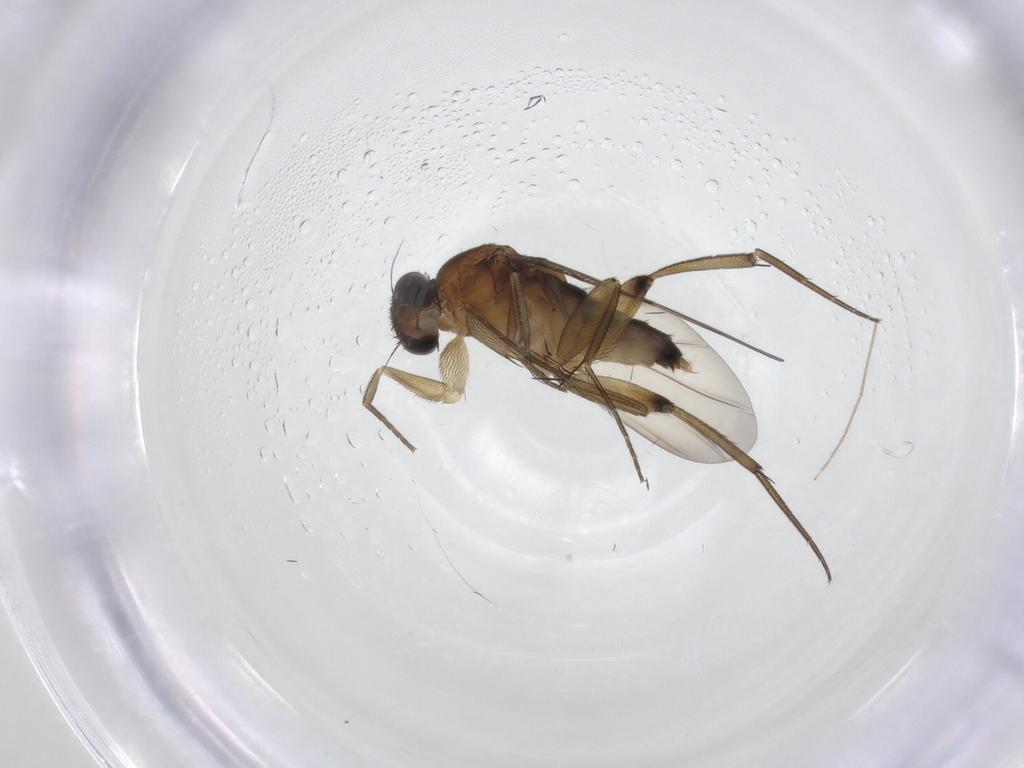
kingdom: Animalia
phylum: Arthropoda
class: Insecta
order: Diptera
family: Phoridae
